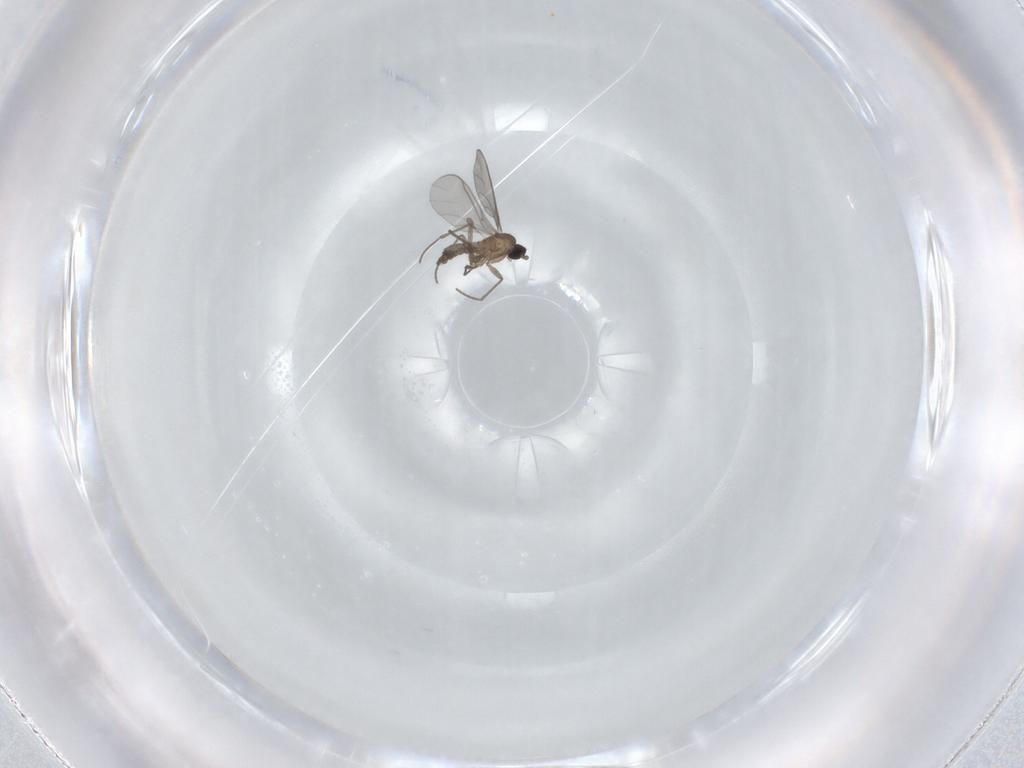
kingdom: Animalia
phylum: Arthropoda
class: Insecta
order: Diptera
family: Sciaridae
